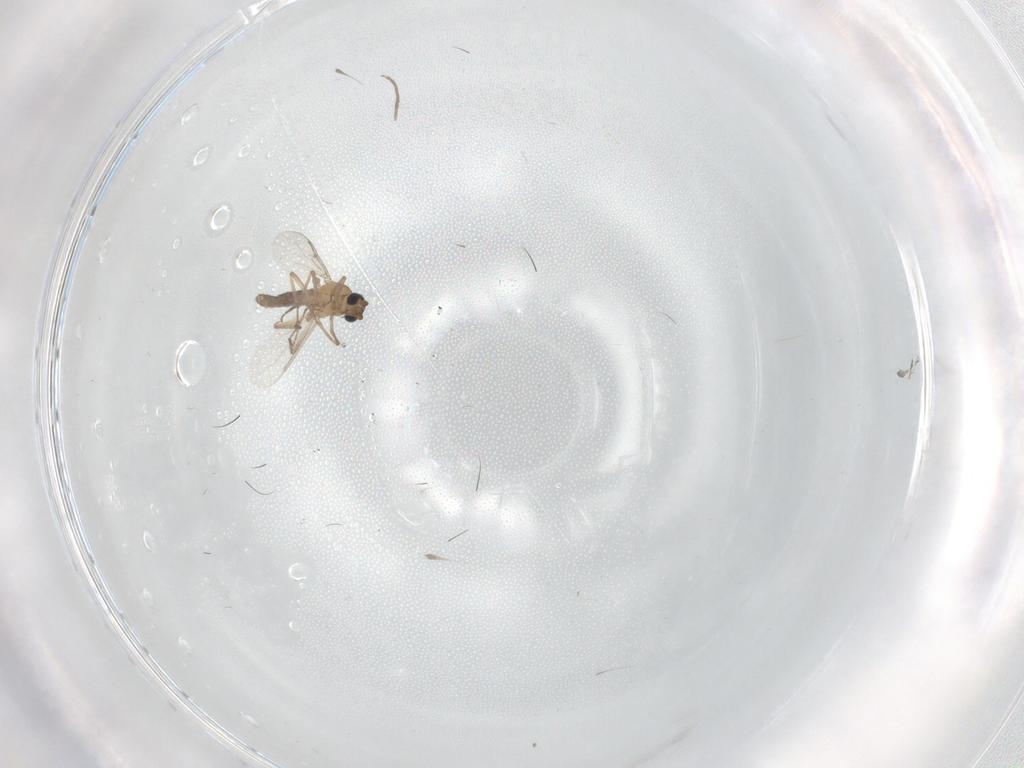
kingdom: Animalia
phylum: Arthropoda
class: Insecta
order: Diptera
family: Ceratopogonidae
